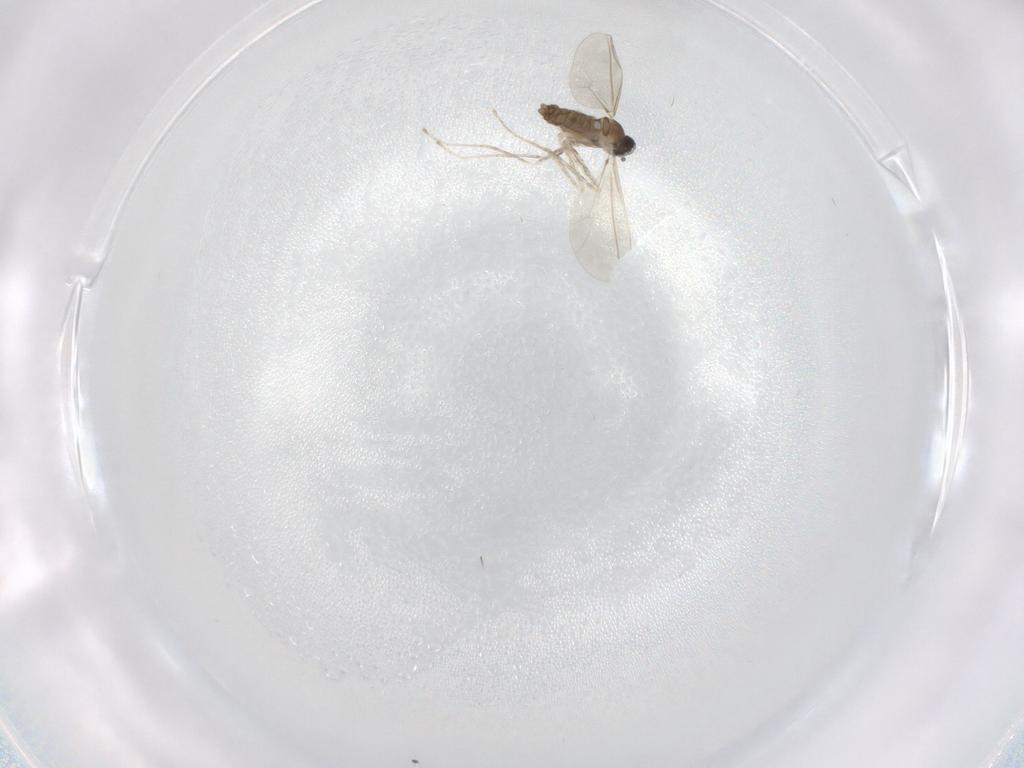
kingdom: Animalia
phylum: Arthropoda
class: Insecta
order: Diptera
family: Cecidomyiidae
